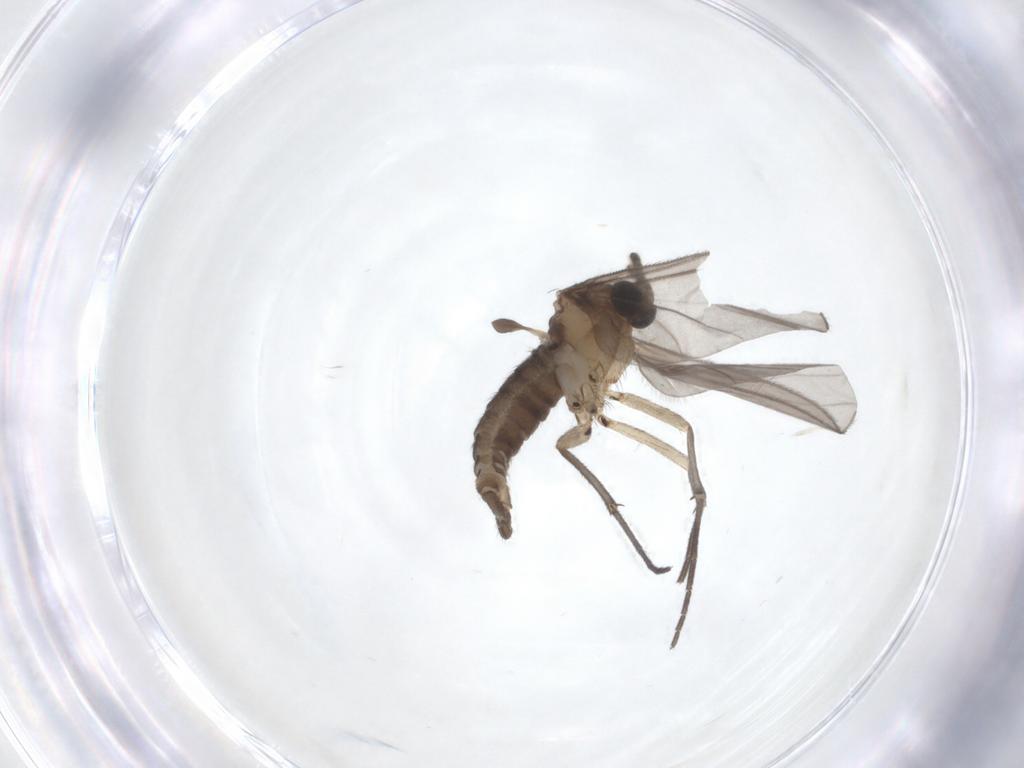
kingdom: Animalia
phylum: Arthropoda
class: Insecta
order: Diptera
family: Sciaridae
